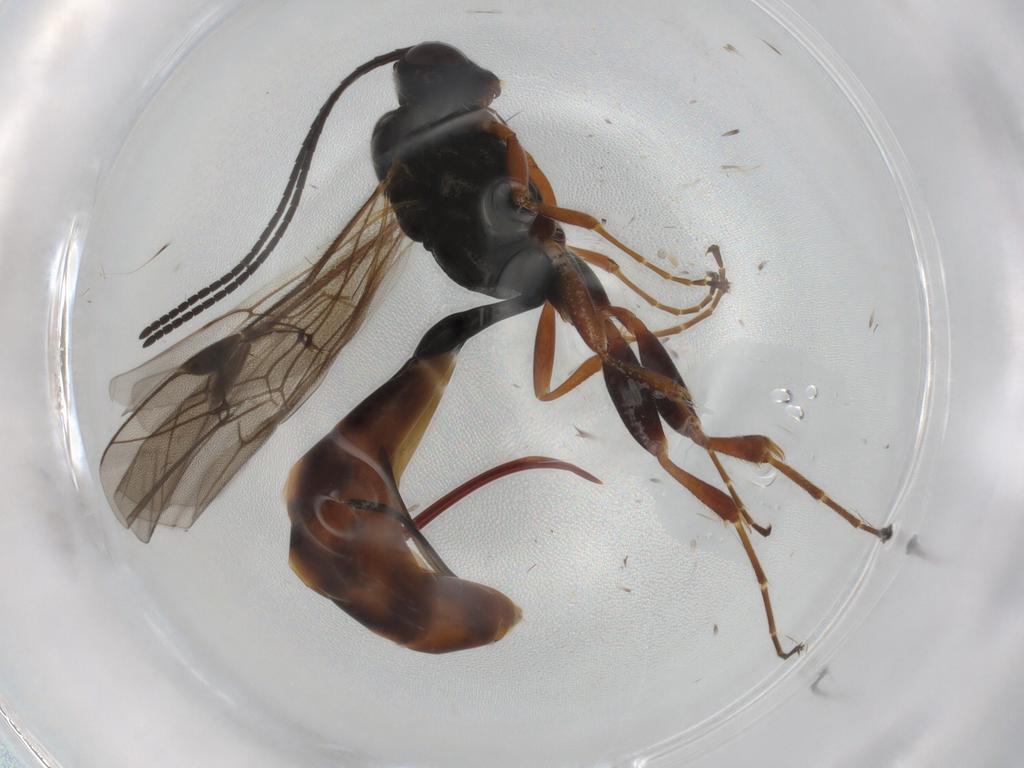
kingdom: Animalia
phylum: Arthropoda
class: Insecta
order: Hymenoptera
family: Ichneumonidae
